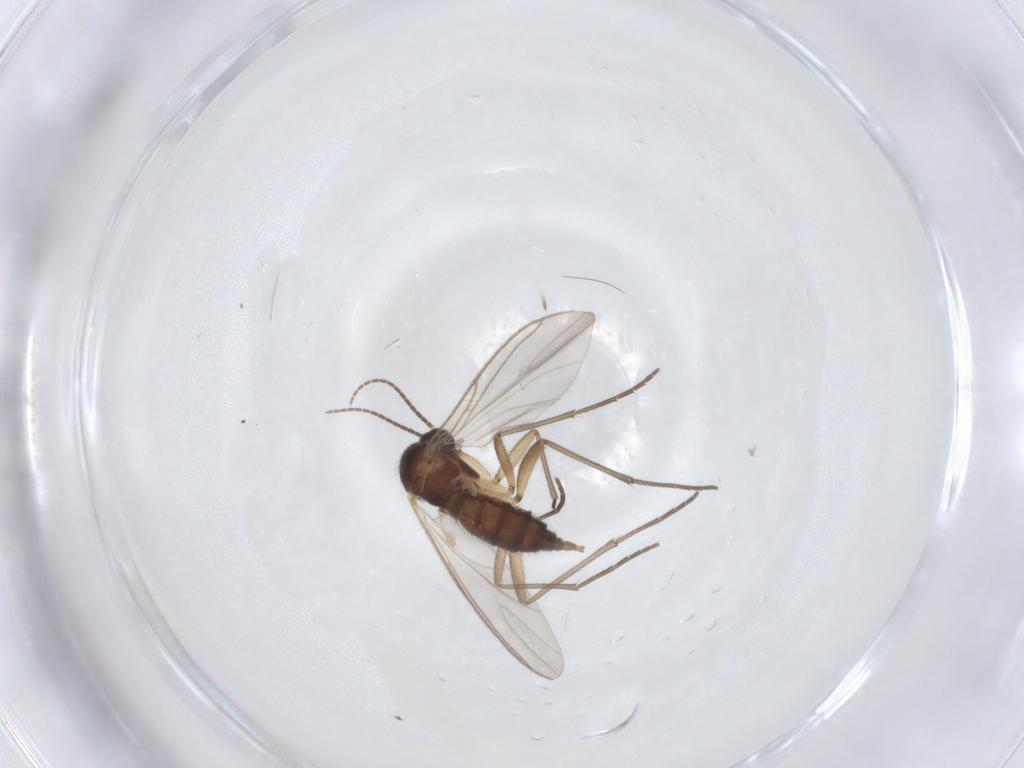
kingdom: Animalia
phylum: Arthropoda
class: Insecta
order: Diptera
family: Sciaridae
